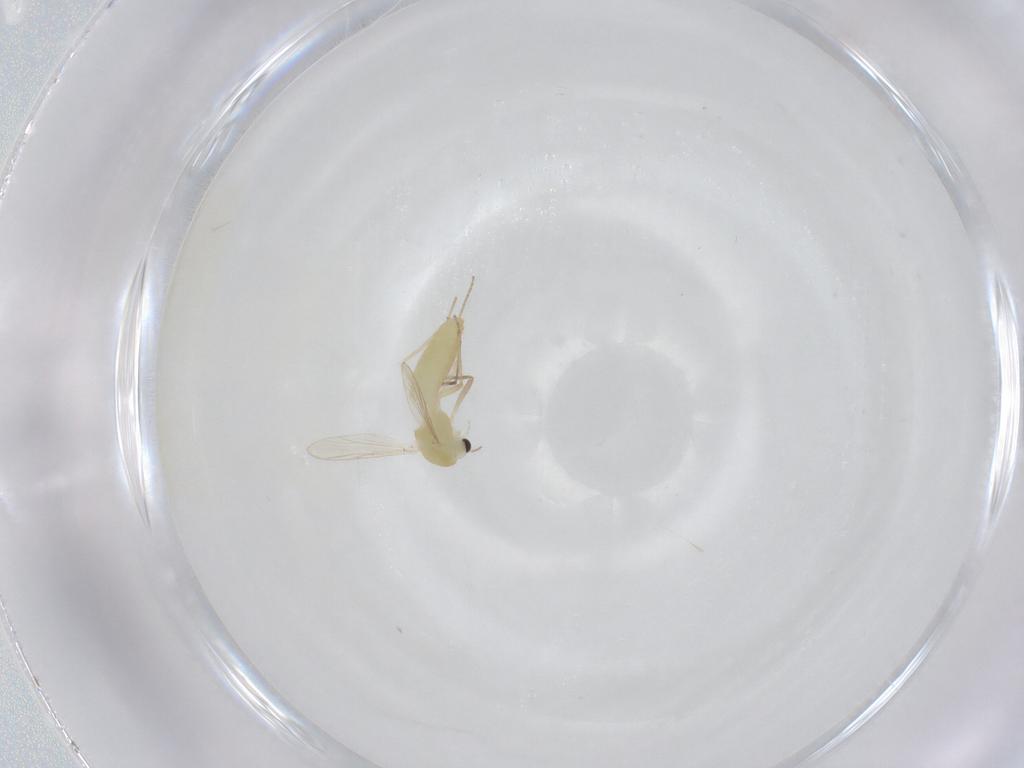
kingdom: Animalia
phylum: Arthropoda
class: Insecta
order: Diptera
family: Chironomidae
